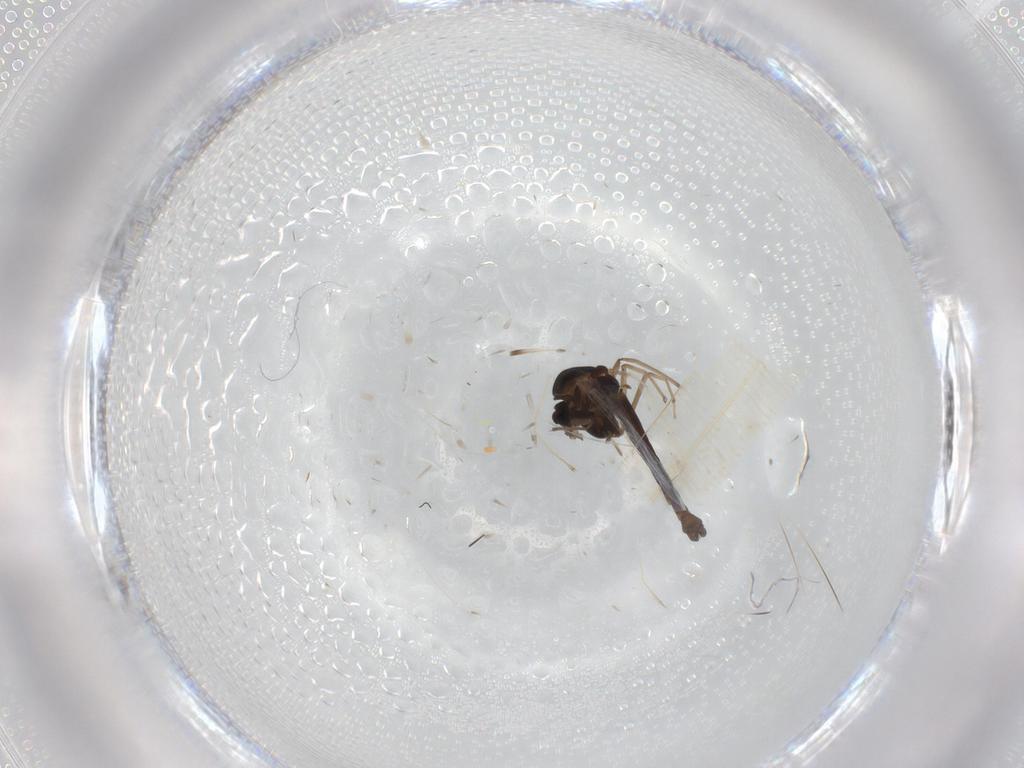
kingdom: Animalia
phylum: Arthropoda
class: Insecta
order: Diptera
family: Chironomidae
